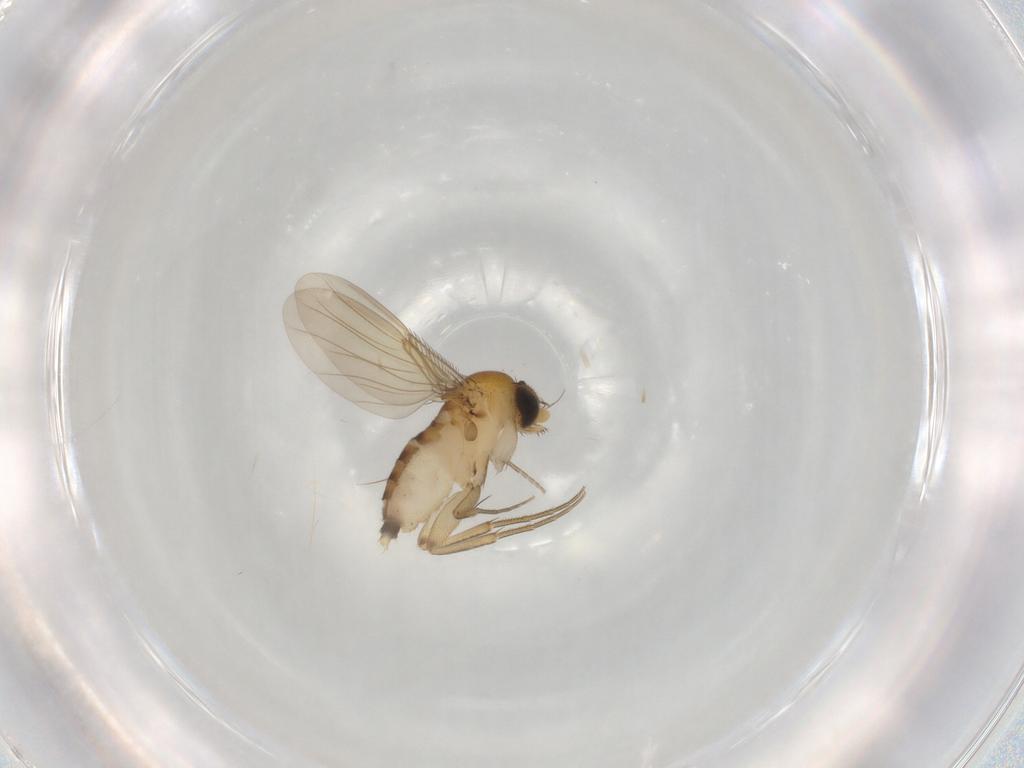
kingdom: Animalia
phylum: Arthropoda
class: Insecta
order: Diptera
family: Phoridae
